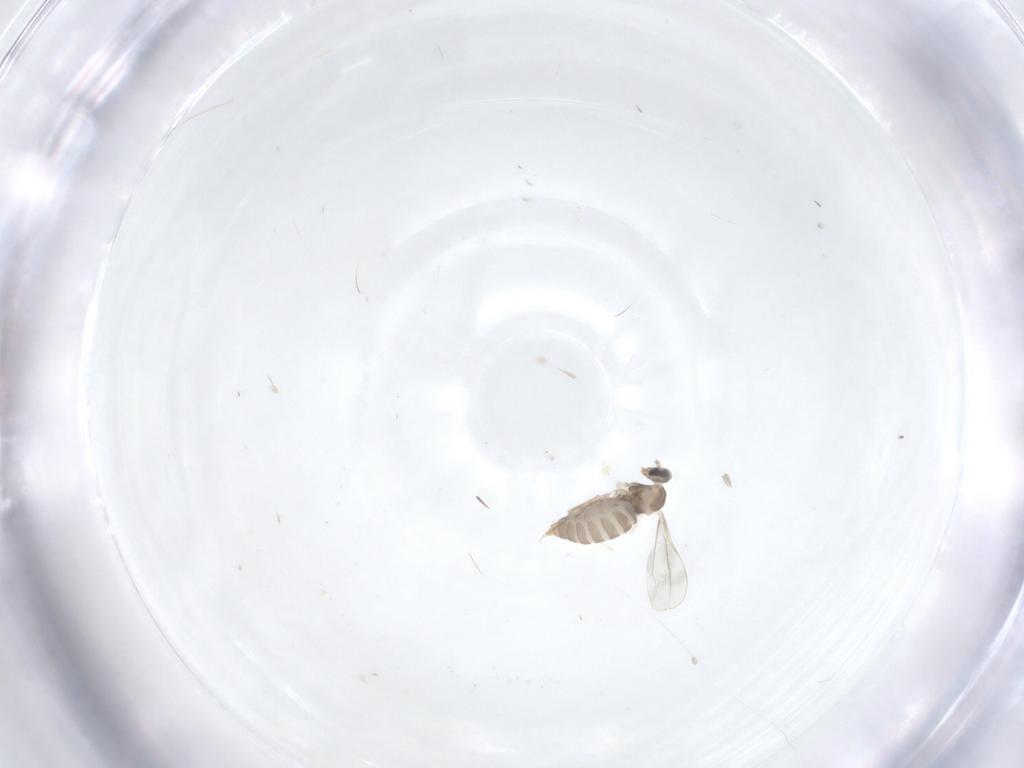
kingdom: Animalia
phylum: Arthropoda
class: Insecta
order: Diptera
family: Cecidomyiidae
